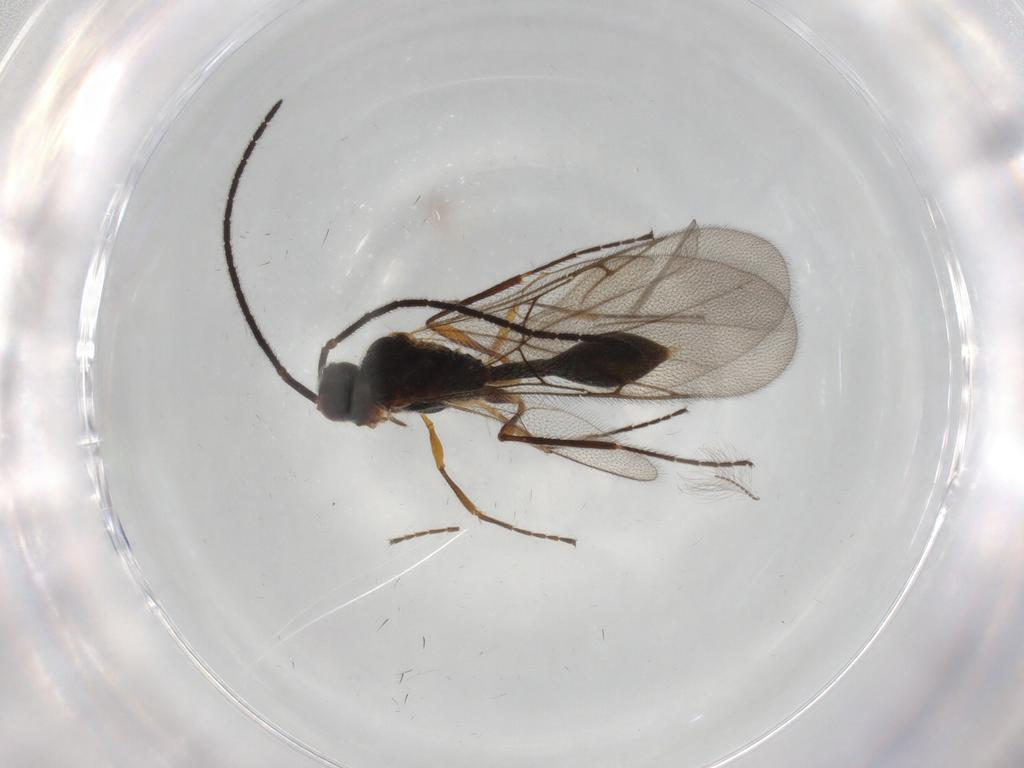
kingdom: Animalia
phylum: Arthropoda
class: Insecta
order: Hymenoptera
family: Diapriidae
